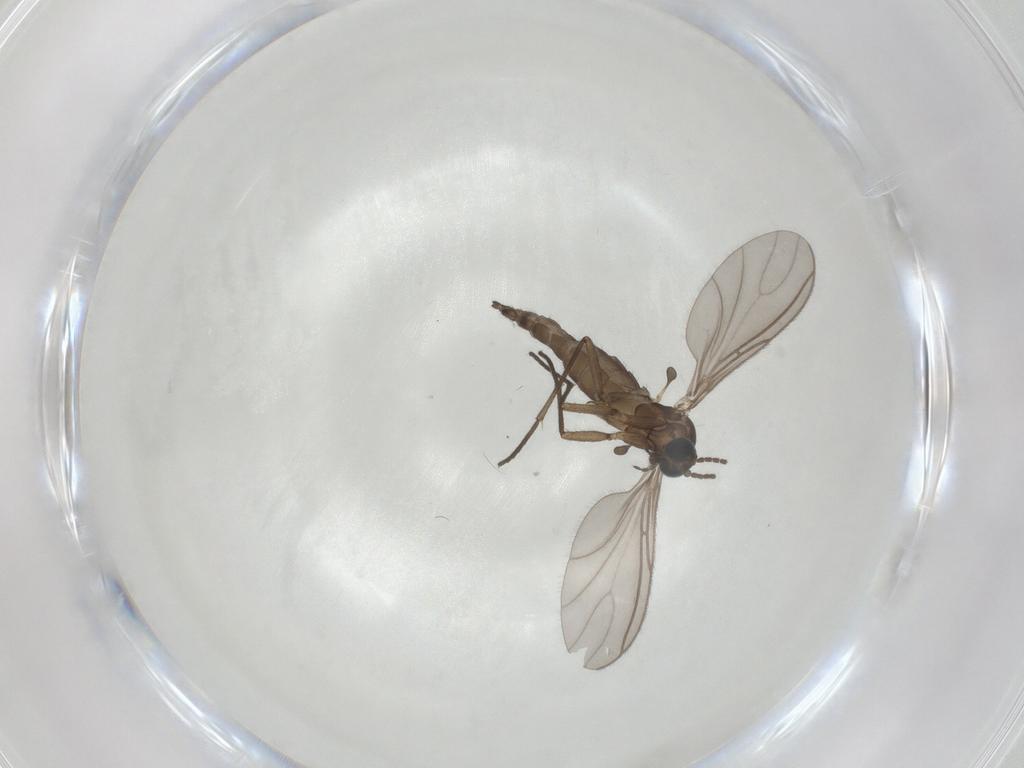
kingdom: Animalia
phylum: Arthropoda
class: Insecta
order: Diptera
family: Sciaridae
